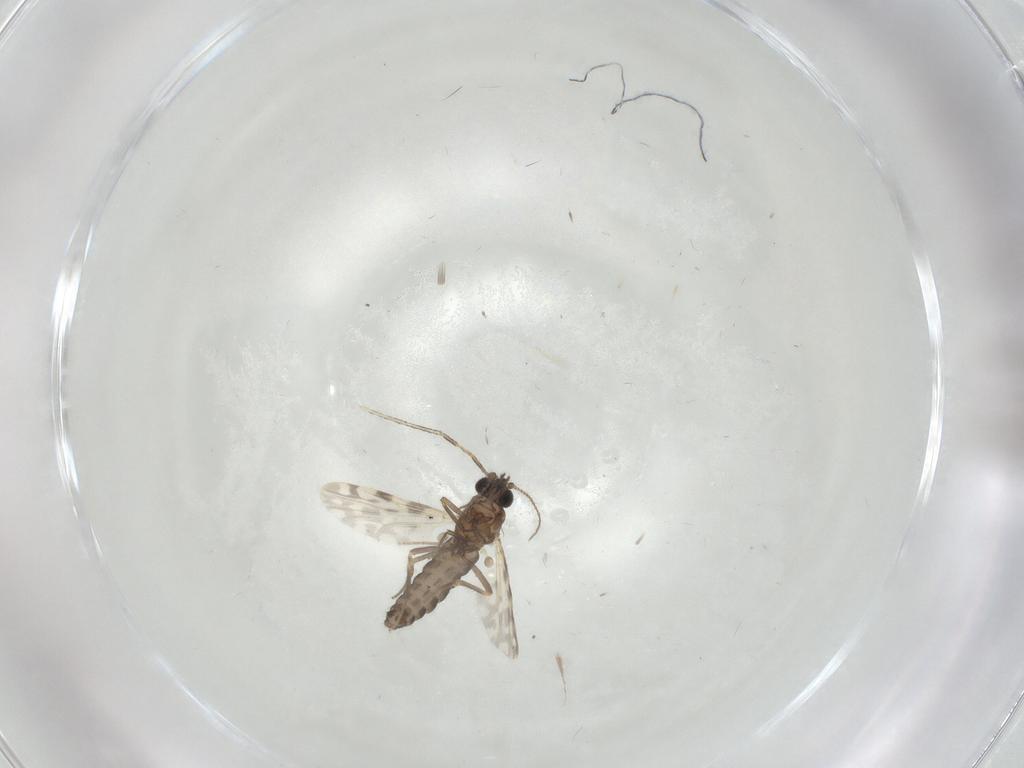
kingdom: Animalia
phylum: Arthropoda
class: Insecta
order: Diptera
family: Ceratopogonidae
